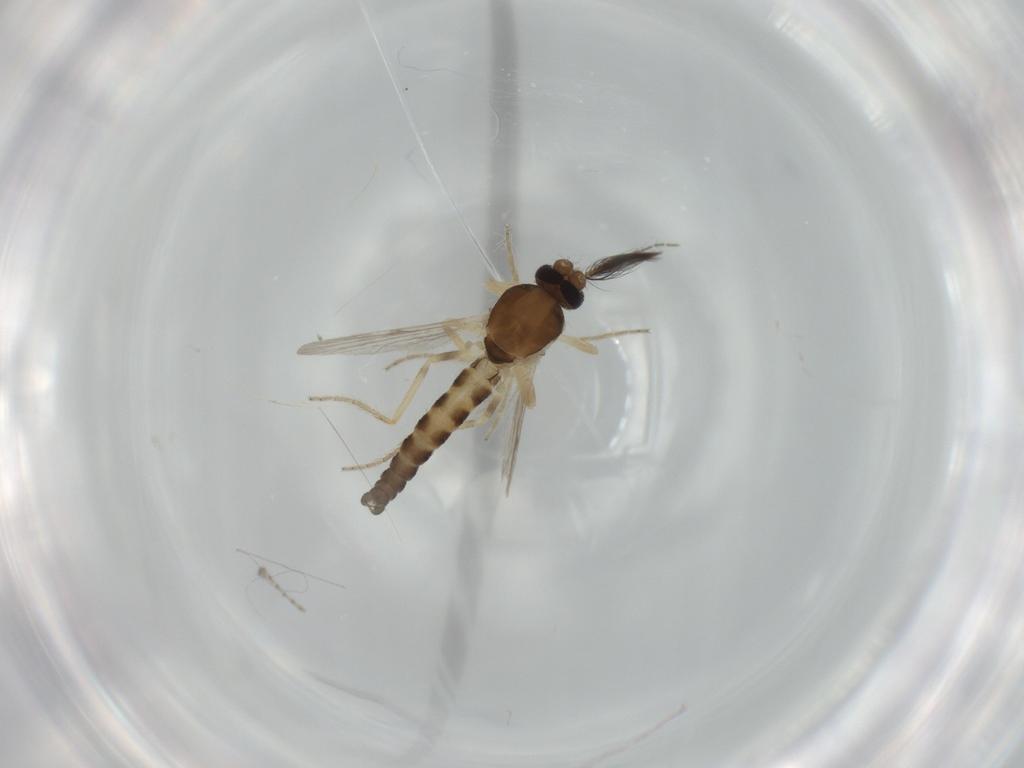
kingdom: Animalia
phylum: Arthropoda
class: Insecta
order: Diptera
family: Ceratopogonidae
